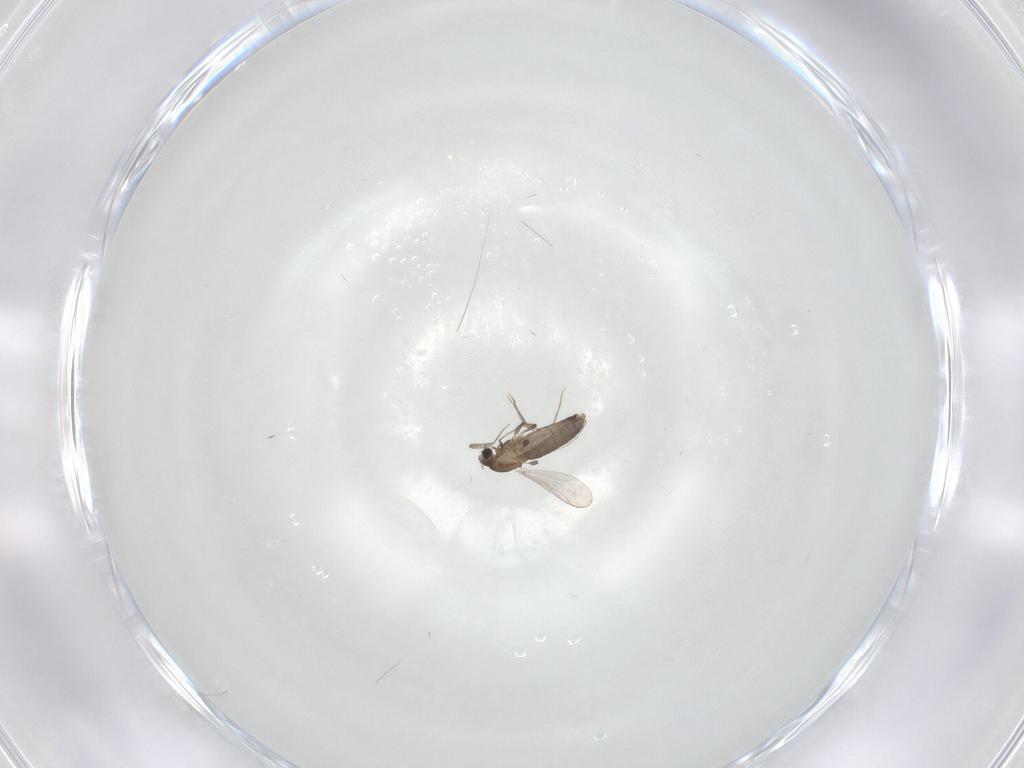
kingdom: Animalia
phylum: Arthropoda
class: Insecta
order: Diptera
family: Chironomidae
